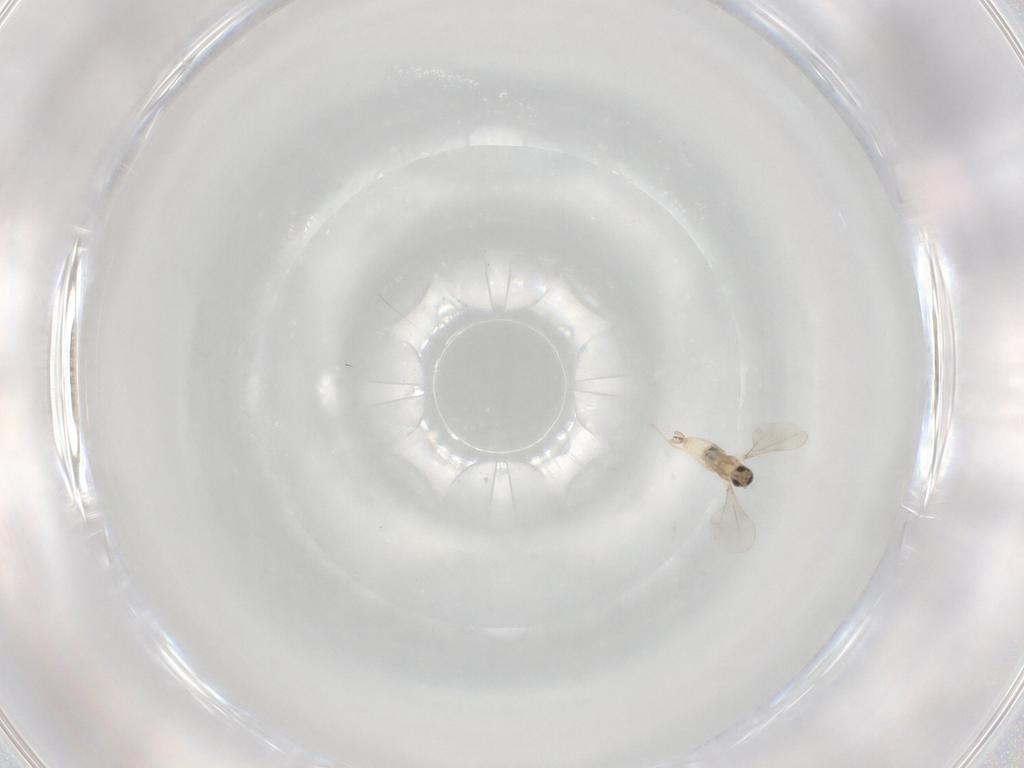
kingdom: Animalia
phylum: Arthropoda
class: Insecta
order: Diptera
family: Cecidomyiidae
